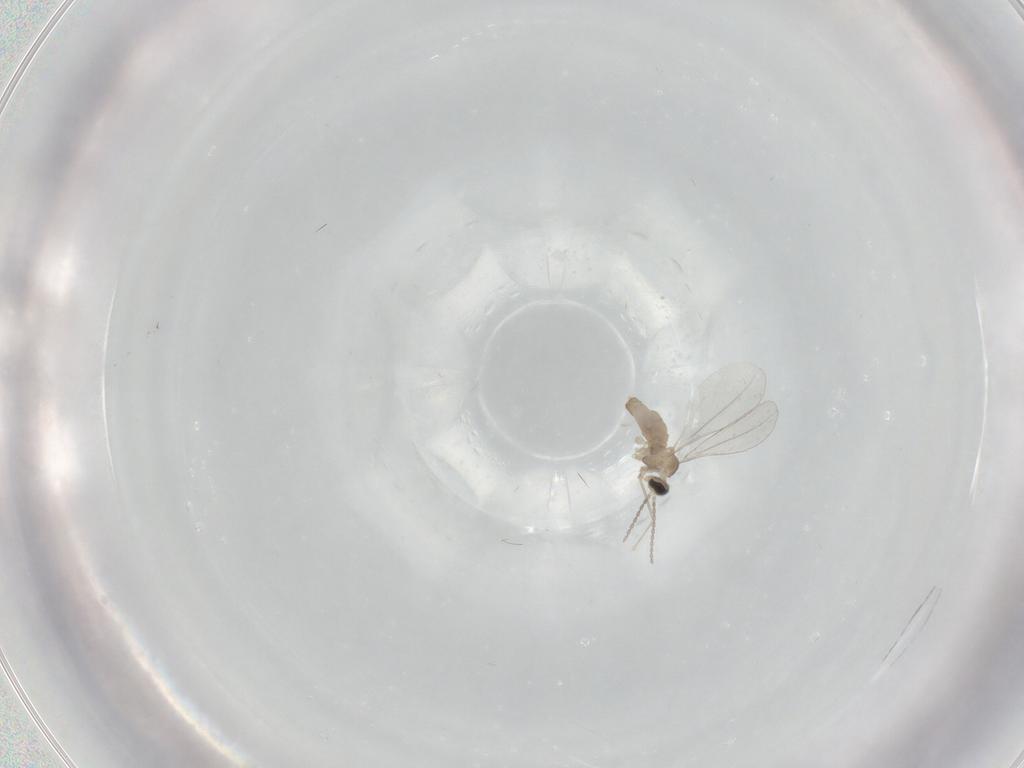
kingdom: Animalia
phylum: Arthropoda
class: Insecta
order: Diptera
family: Cecidomyiidae
